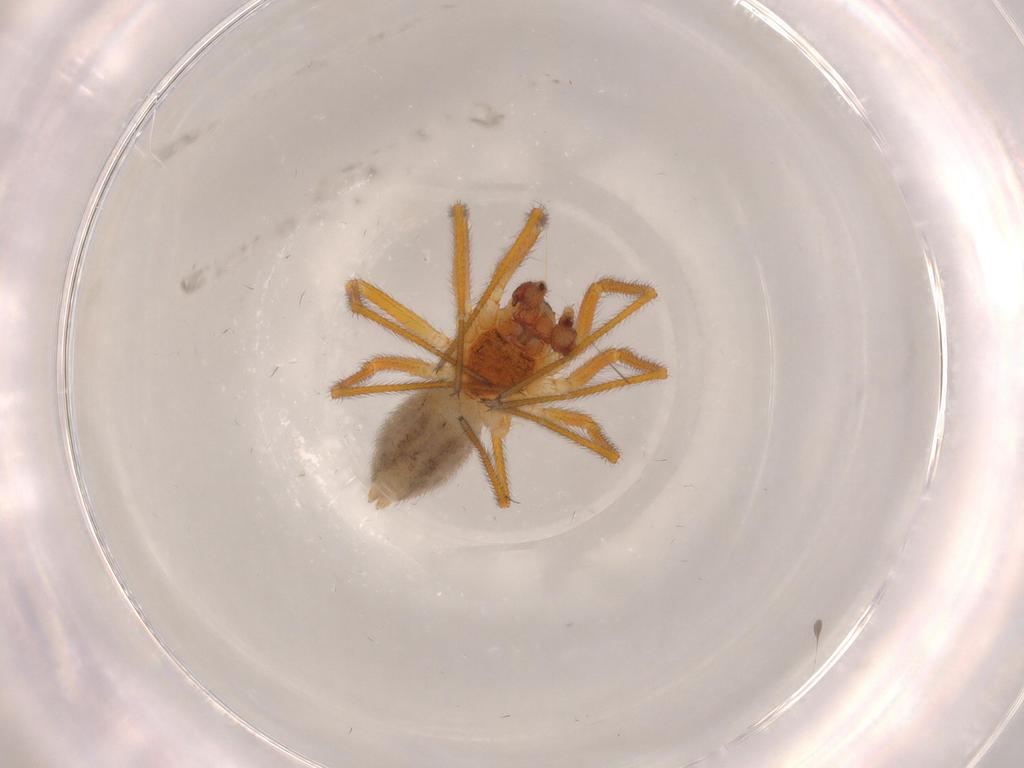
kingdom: Animalia
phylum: Arthropoda
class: Arachnida
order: Araneae
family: Linyphiidae
